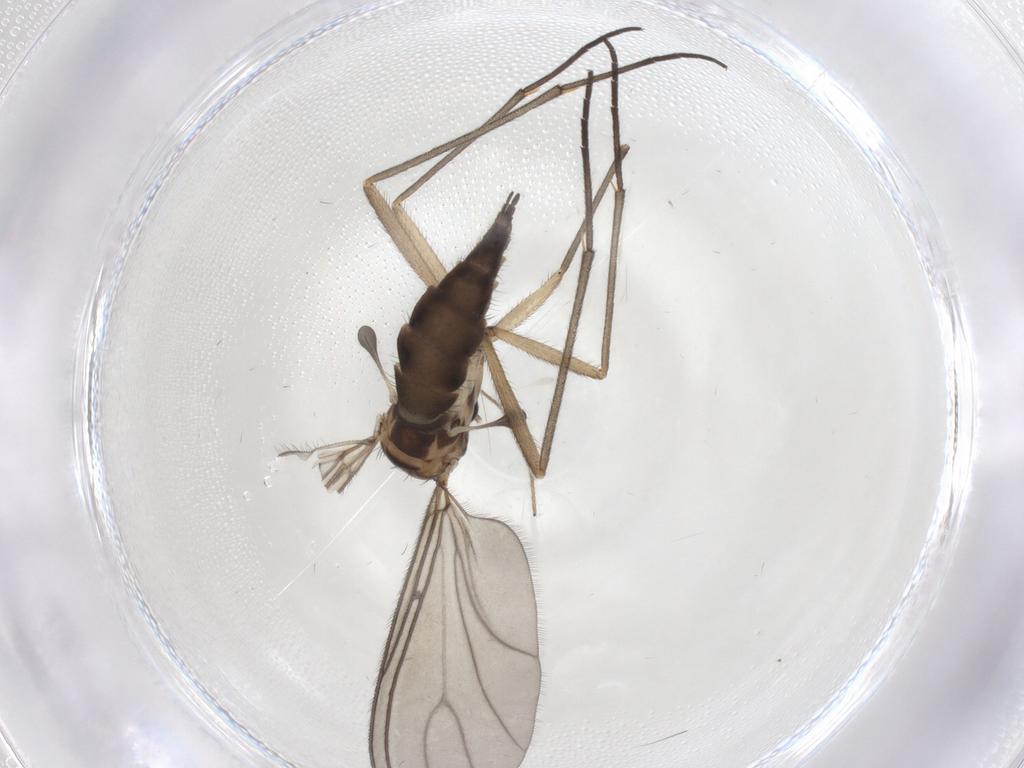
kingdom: Animalia
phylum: Arthropoda
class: Insecta
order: Diptera
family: Sciaridae
